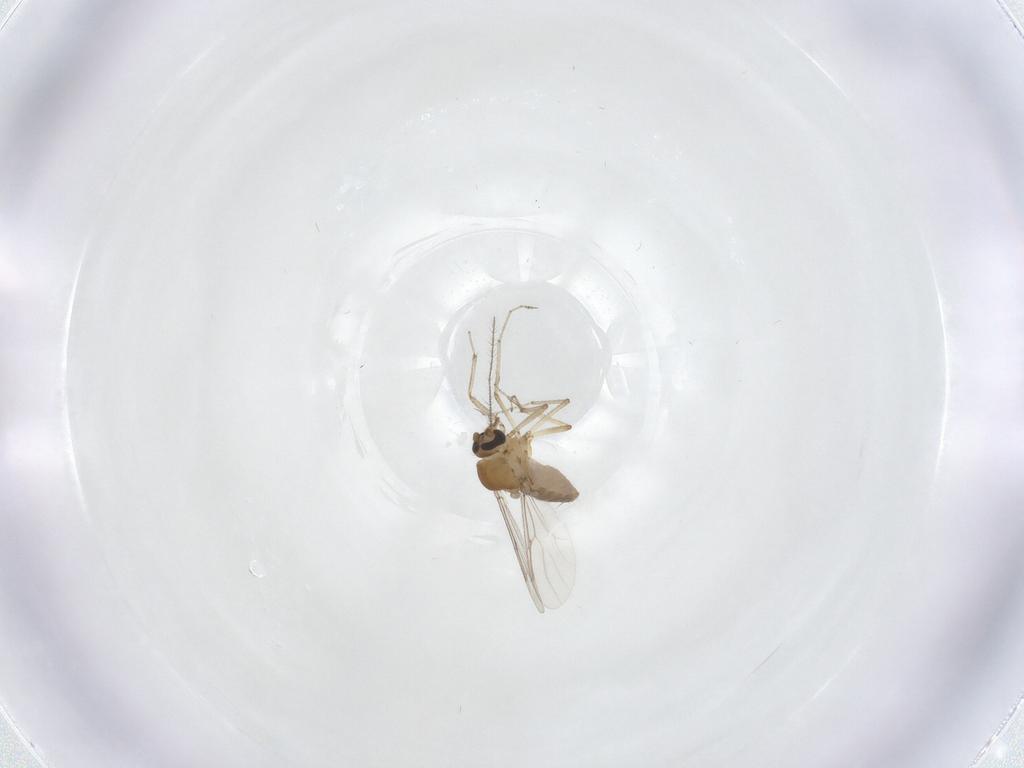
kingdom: Animalia
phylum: Arthropoda
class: Insecta
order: Diptera
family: Ceratopogonidae
